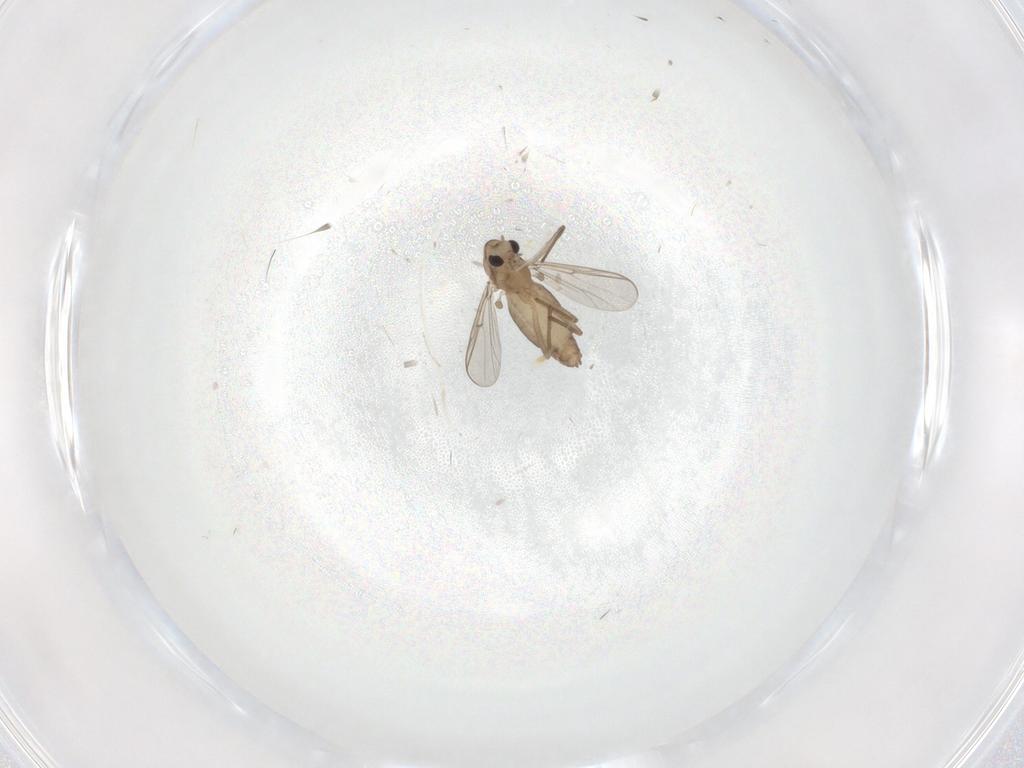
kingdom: Animalia
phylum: Arthropoda
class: Insecta
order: Diptera
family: Chironomidae
